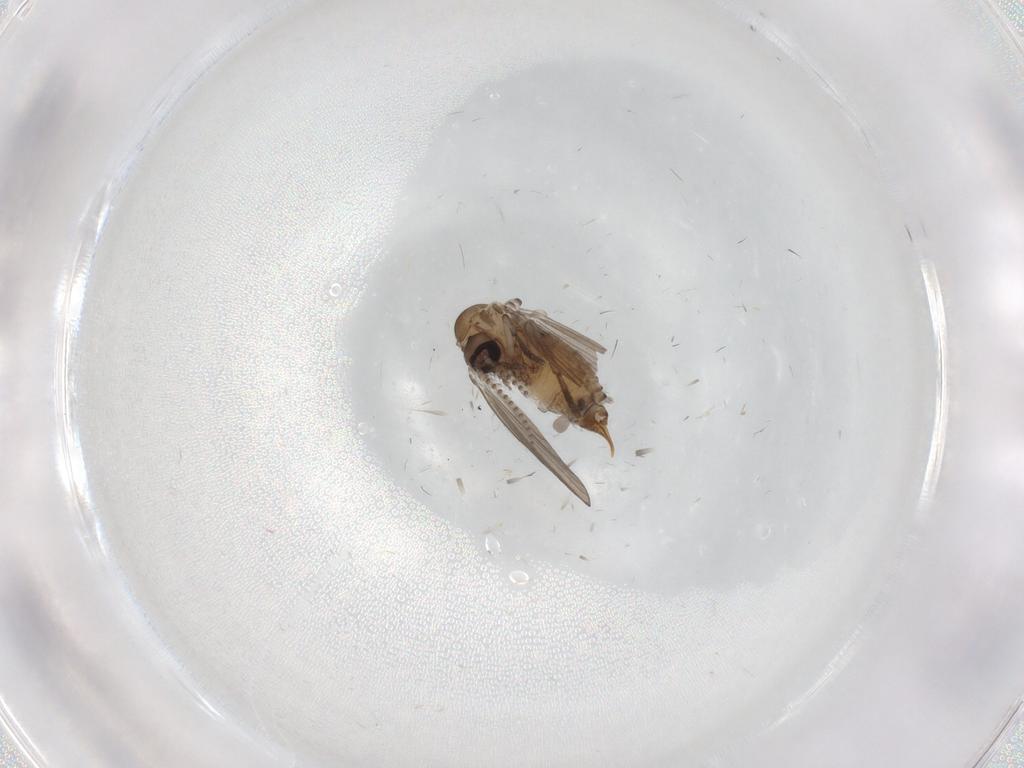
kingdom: Animalia
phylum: Arthropoda
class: Insecta
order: Diptera
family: Psychodidae
